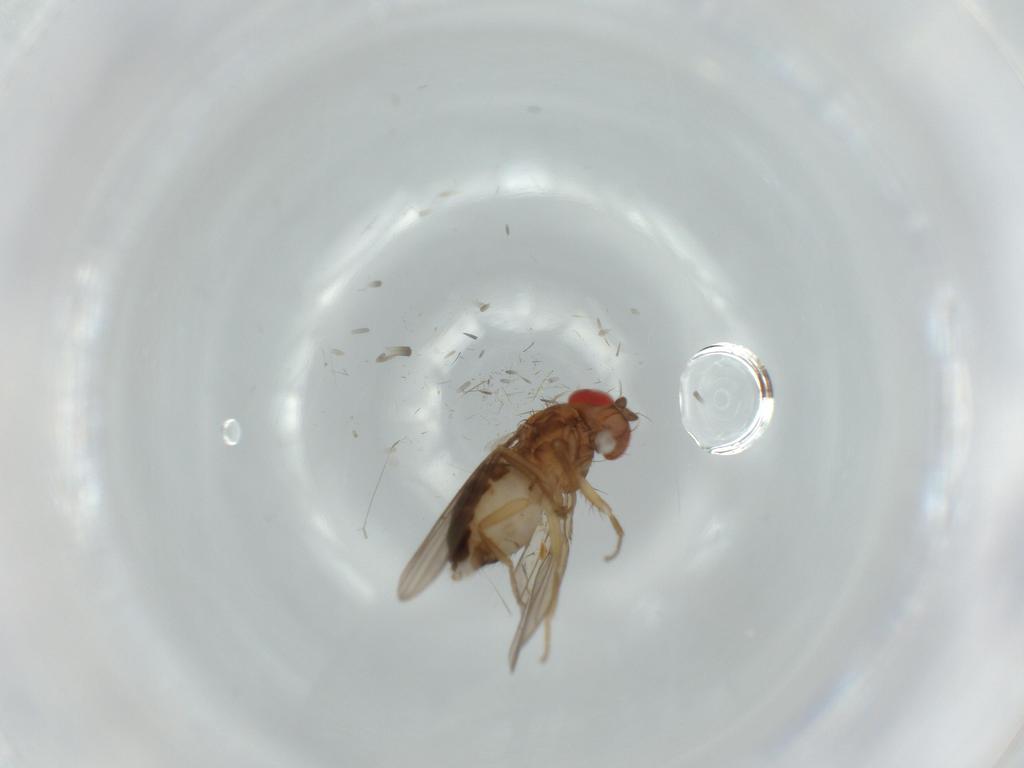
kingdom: Animalia
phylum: Arthropoda
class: Insecta
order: Diptera
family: Drosophilidae
